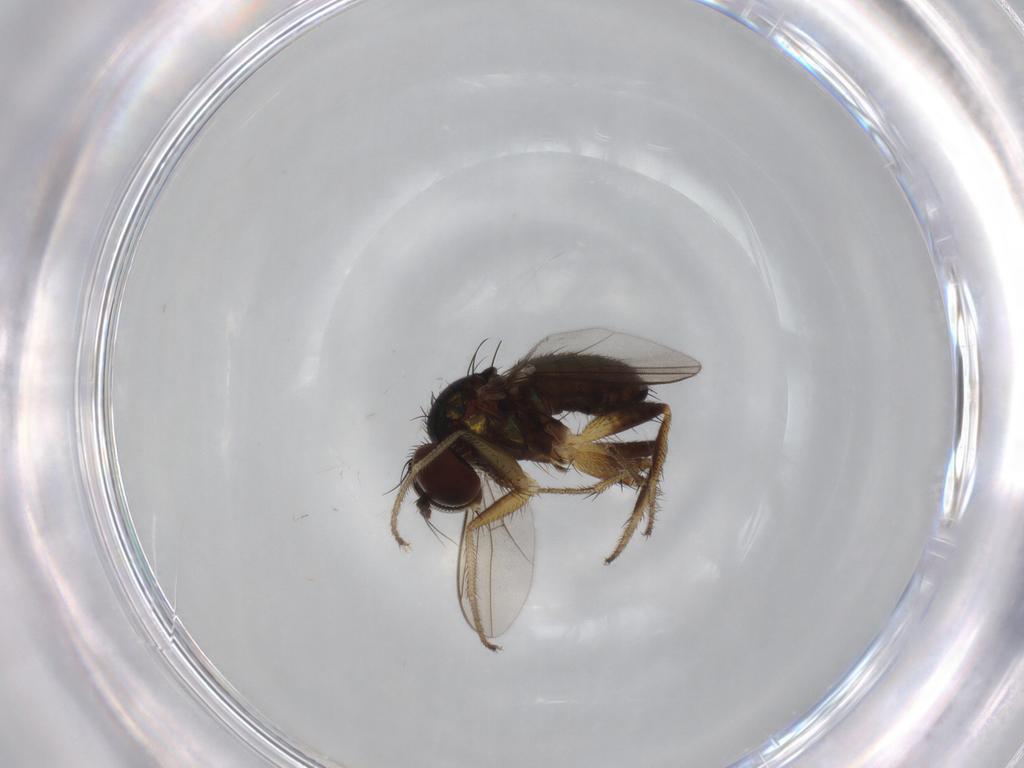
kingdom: Animalia
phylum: Arthropoda
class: Insecta
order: Diptera
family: Dolichopodidae
